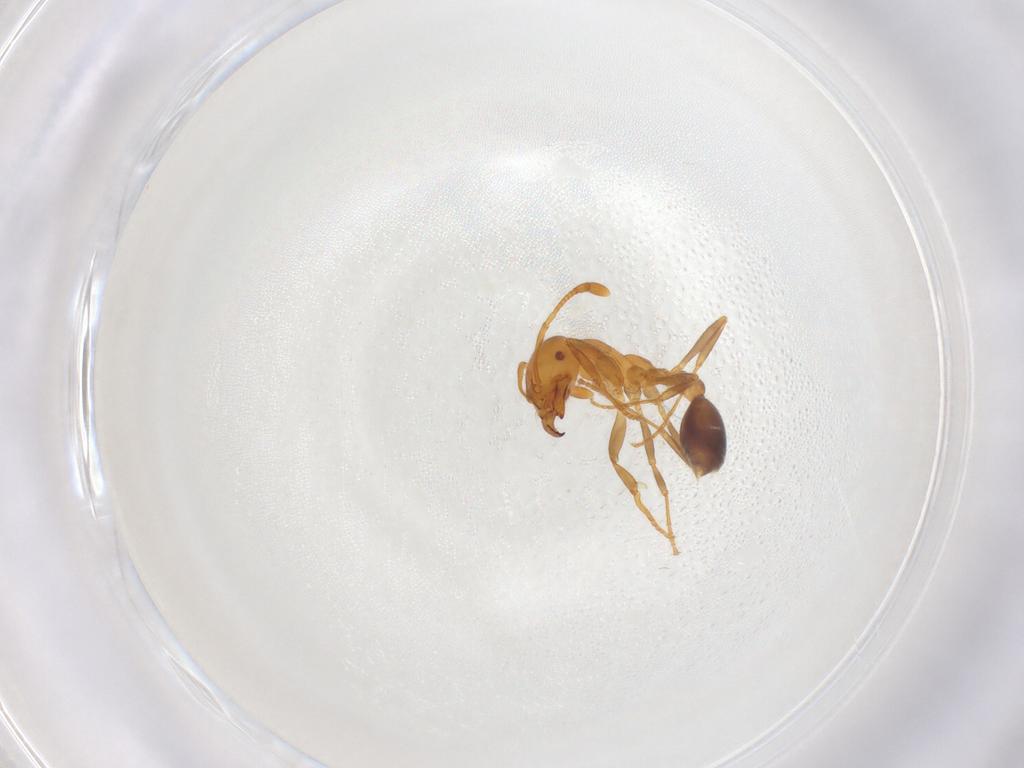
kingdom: Animalia
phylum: Arthropoda
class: Insecta
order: Hymenoptera
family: Formicidae
